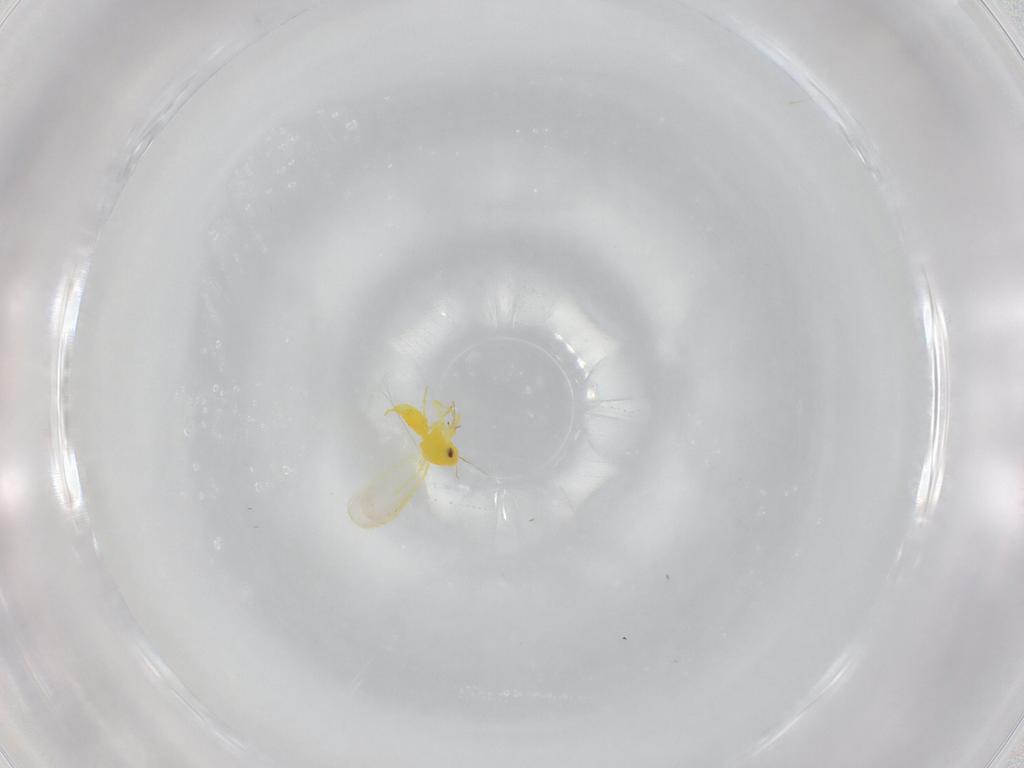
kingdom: Animalia
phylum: Arthropoda
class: Insecta
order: Hemiptera
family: Aleyrodidae
